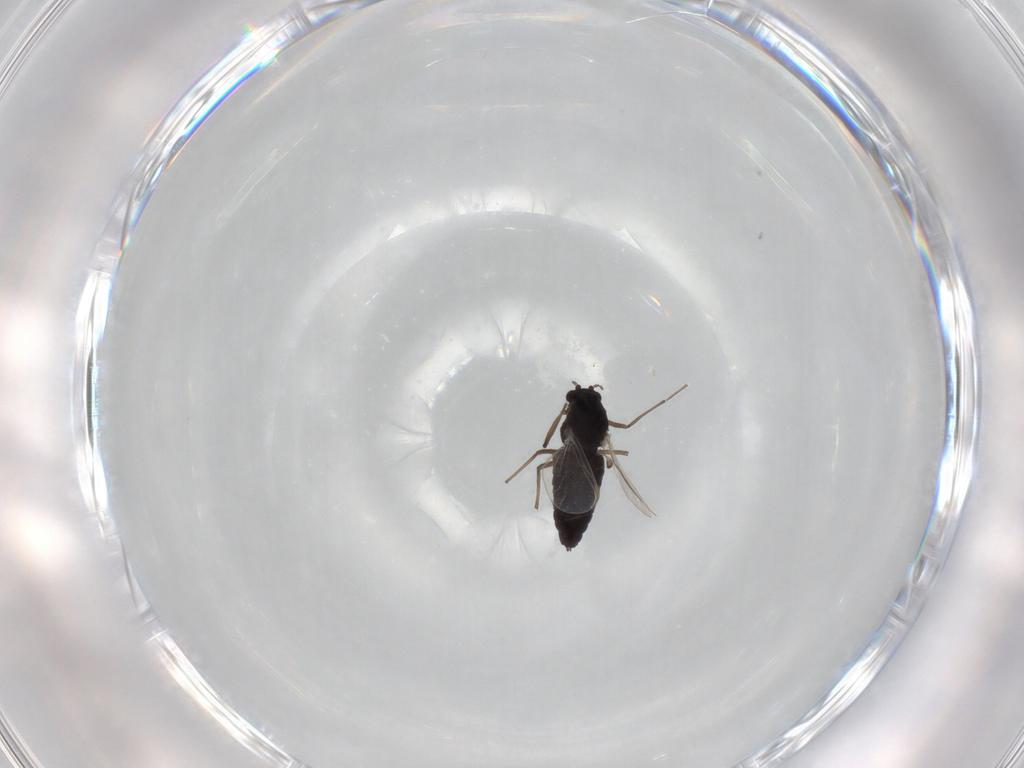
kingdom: Animalia
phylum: Arthropoda
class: Insecta
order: Diptera
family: Chironomidae
